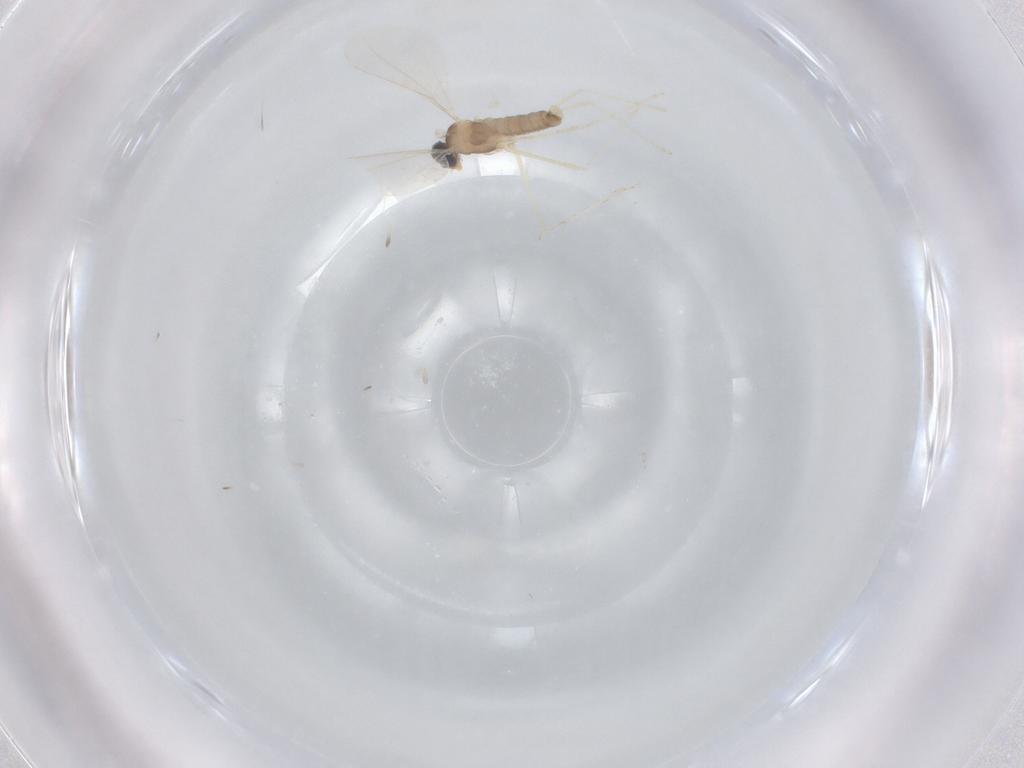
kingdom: Animalia
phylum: Arthropoda
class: Insecta
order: Diptera
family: Cecidomyiidae
